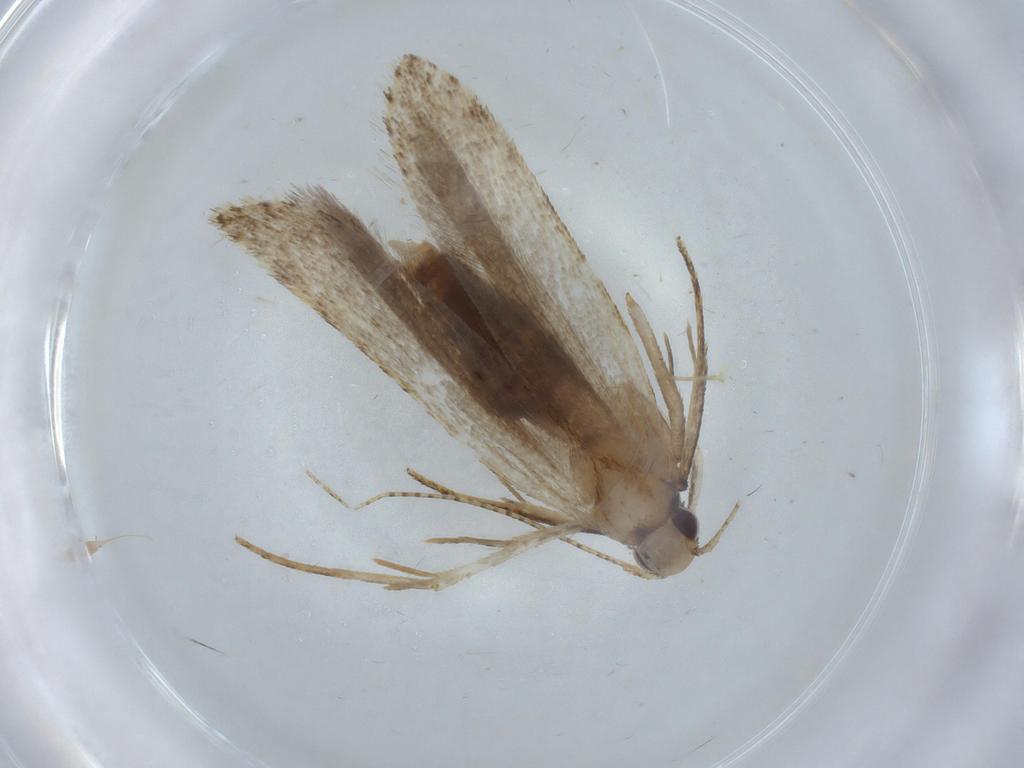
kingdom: Animalia
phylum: Arthropoda
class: Insecta
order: Lepidoptera
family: Gelechiidae
